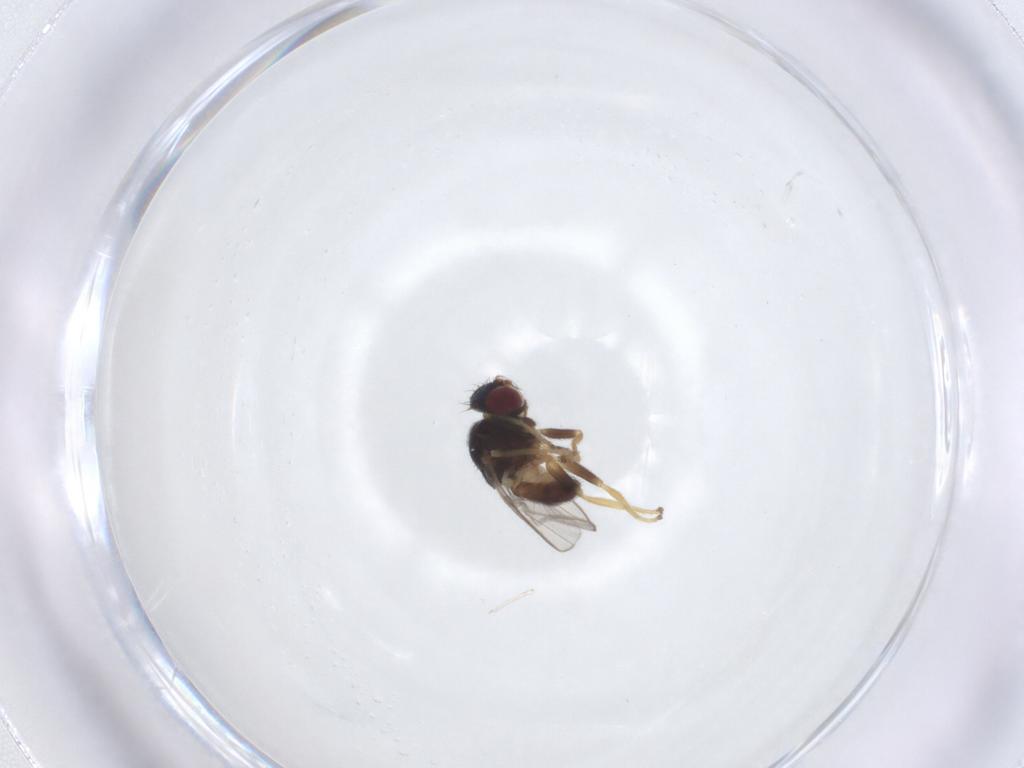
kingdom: Animalia
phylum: Arthropoda
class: Insecta
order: Diptera
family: Chloropidae
